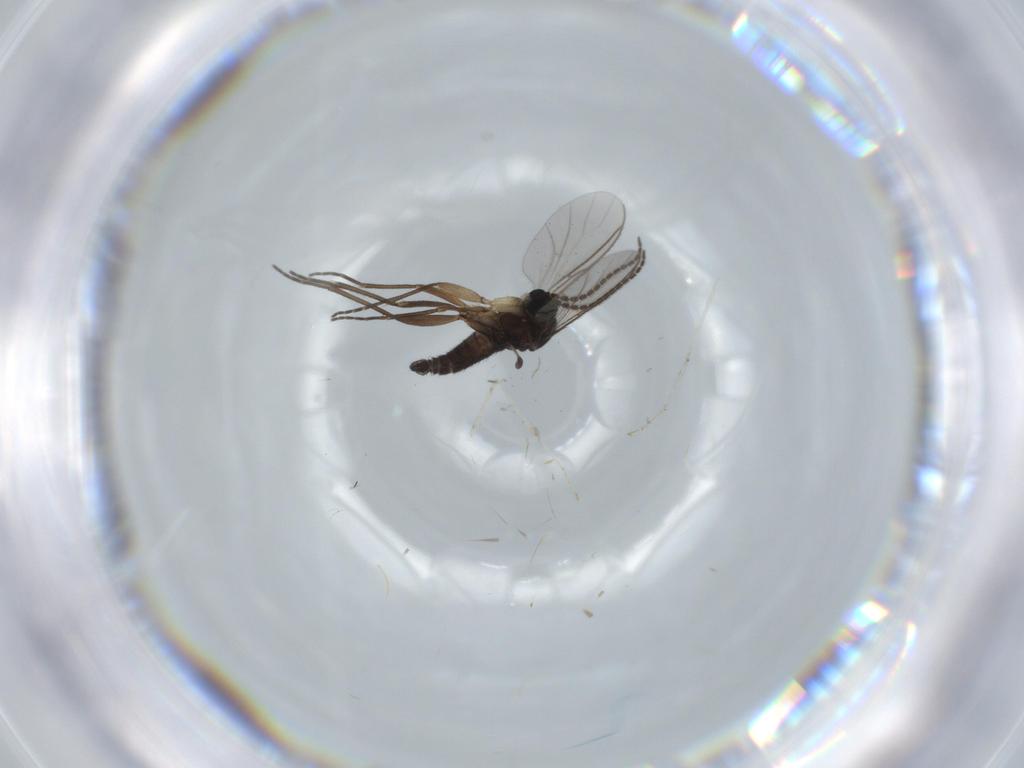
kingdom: Animalia
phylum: Arthropoda
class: Insecta
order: Diptera
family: Sciaridae
